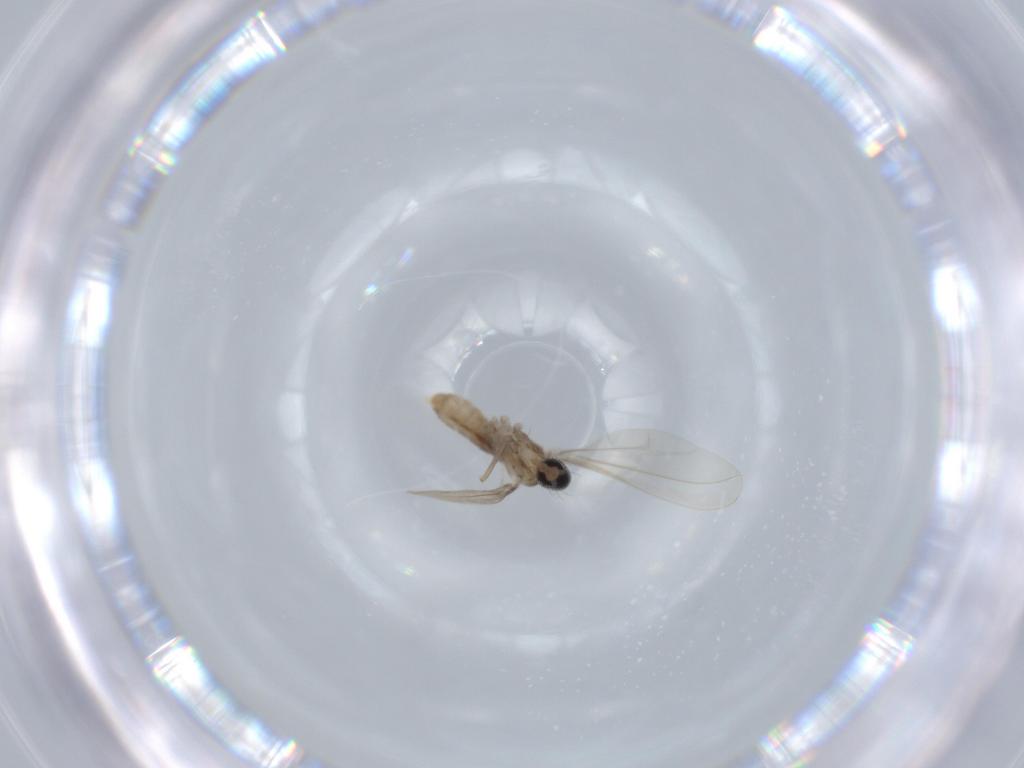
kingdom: Animalia
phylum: Arthropoda
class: Insecta
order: Diptera
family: Cecidomyiidae
